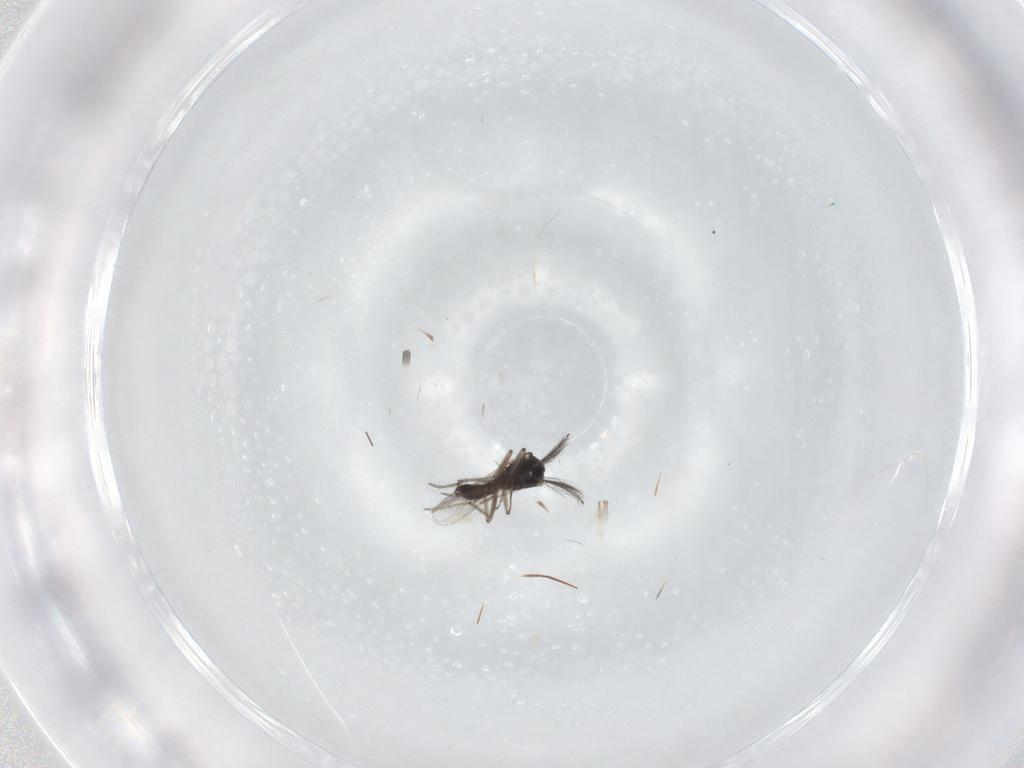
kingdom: Animalia
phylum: Arthropoda
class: Insecta
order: Diptera
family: Ceratopogonidae
